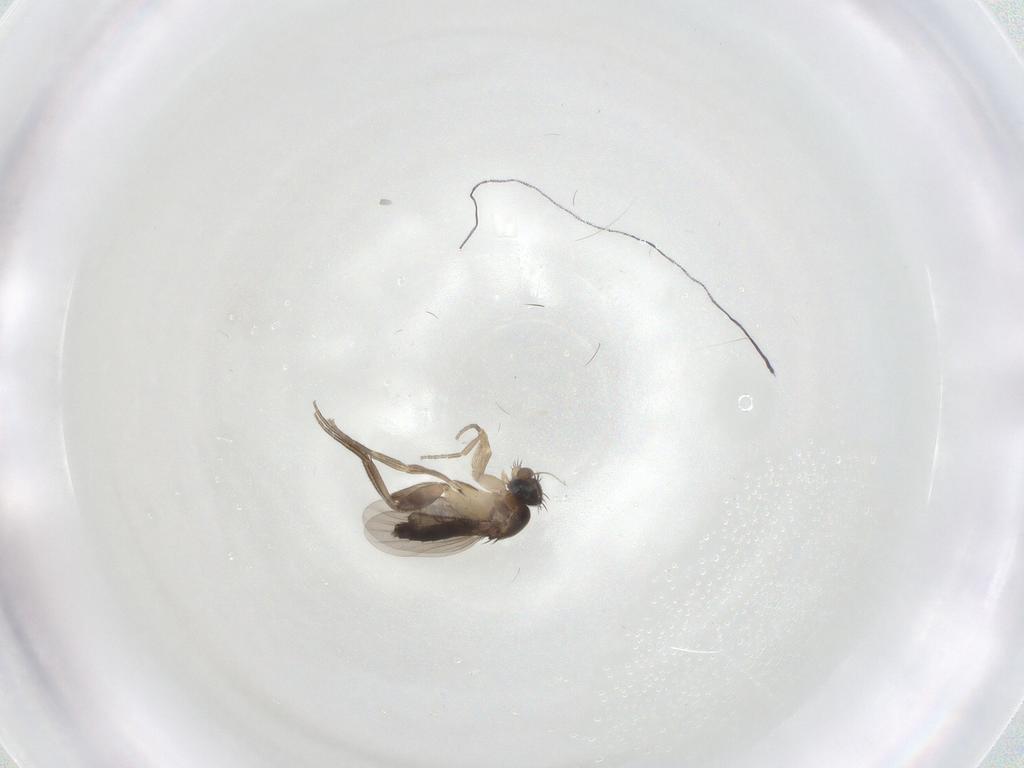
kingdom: Animalia
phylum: Arthropoda
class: Insecta
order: Diptera
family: Phoridae
